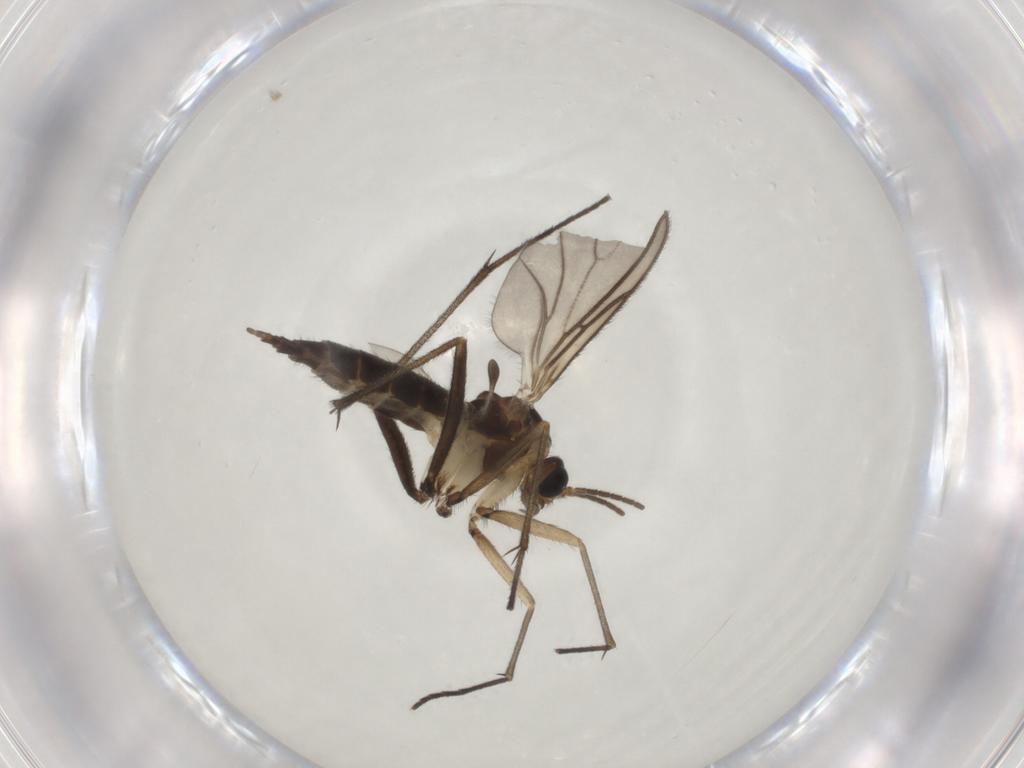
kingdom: Animalia
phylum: Arthropoda
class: Insecta
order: Diptera
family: Sciaridae
